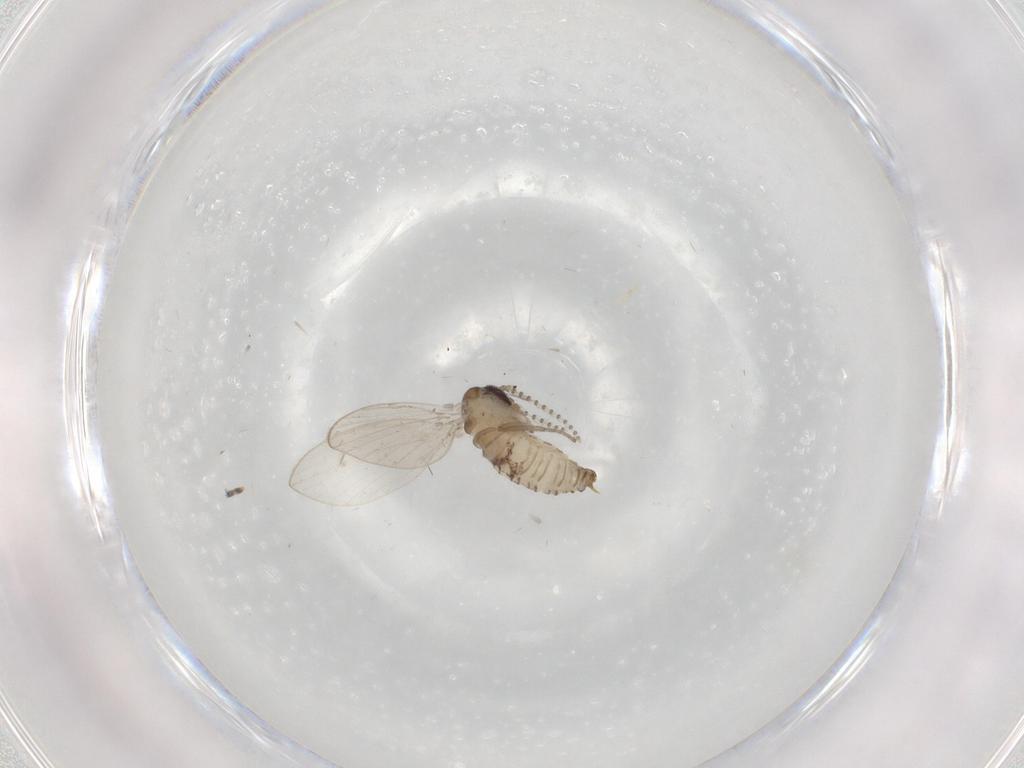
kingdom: Animalia
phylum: Arthropoda
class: Insecta
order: Diptera
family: Psychodidae
